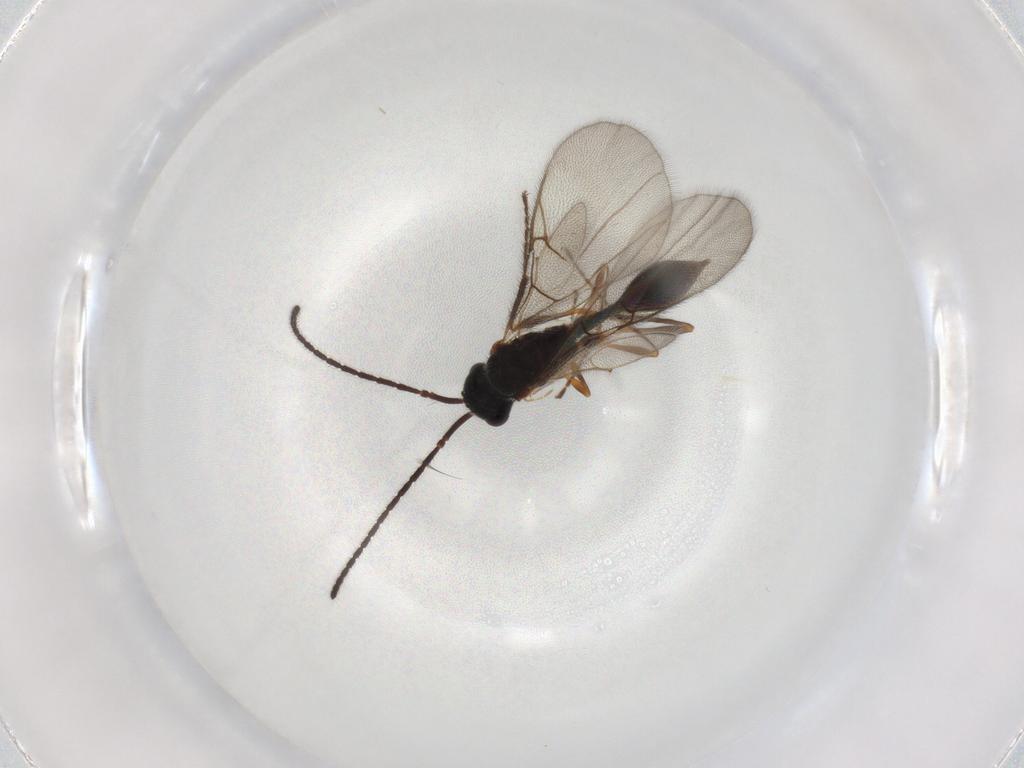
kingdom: Animalia
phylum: Arthropoda
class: Insecta
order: Hymenoptera
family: Diapriidae
